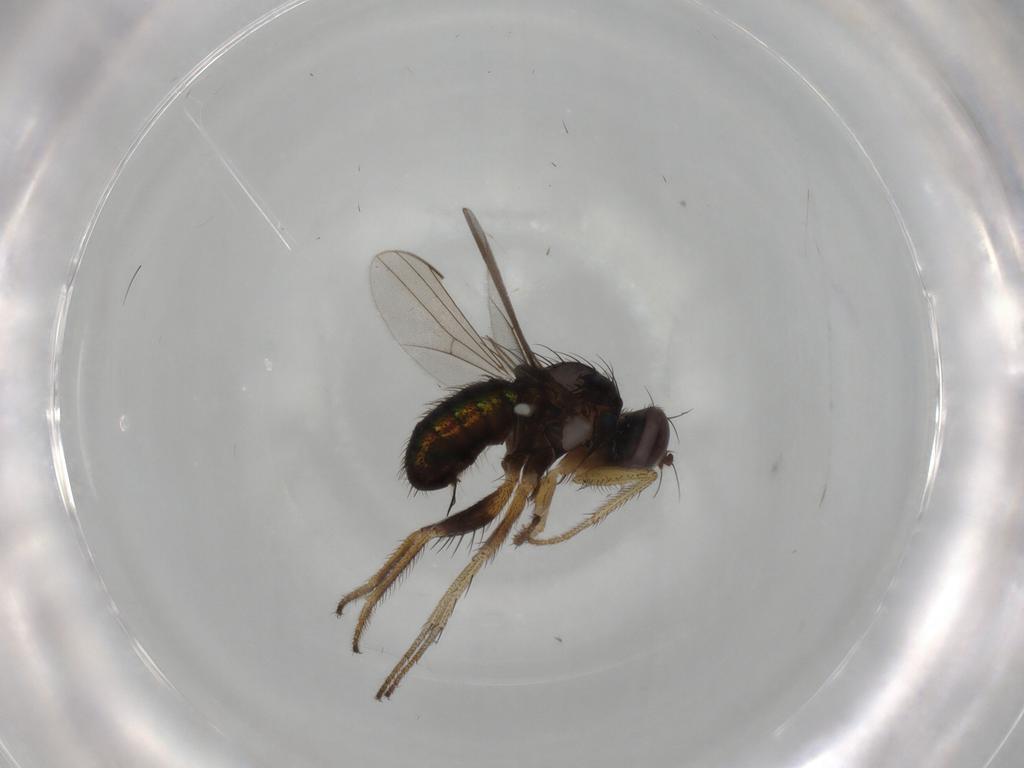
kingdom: Animalia
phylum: Arthropoda
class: Insecta
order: Diptera
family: Dolichopodidae
